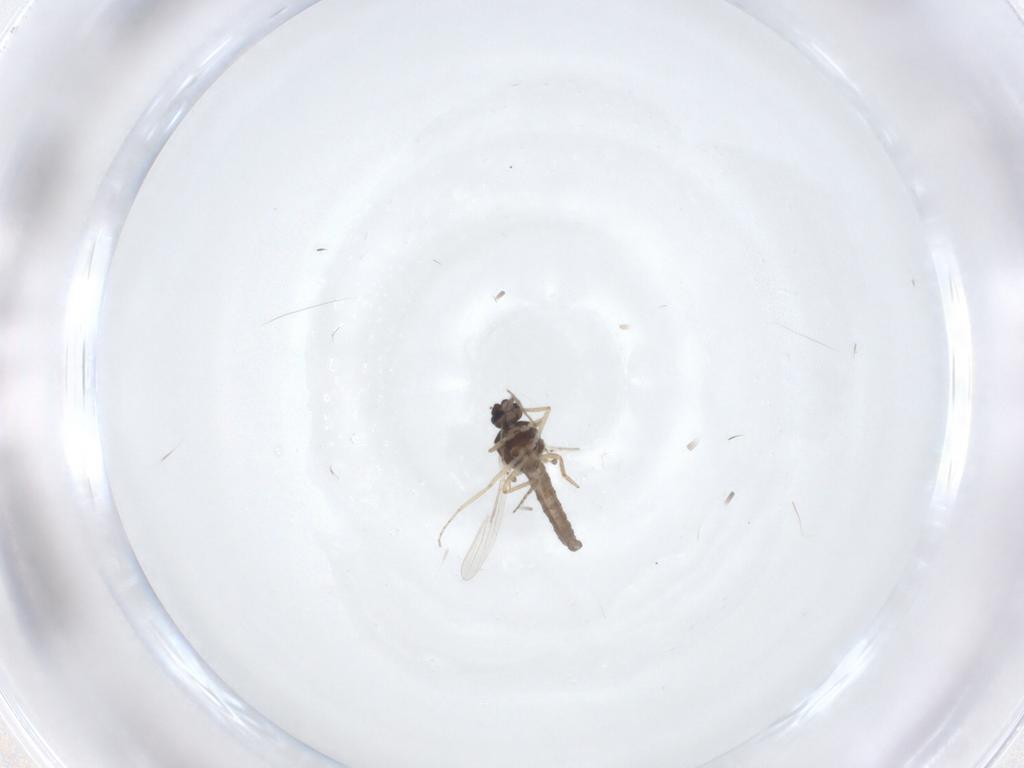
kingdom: Animalia
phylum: Arthropoda
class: Insecta
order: Diptera
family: Ceratopogonidae
